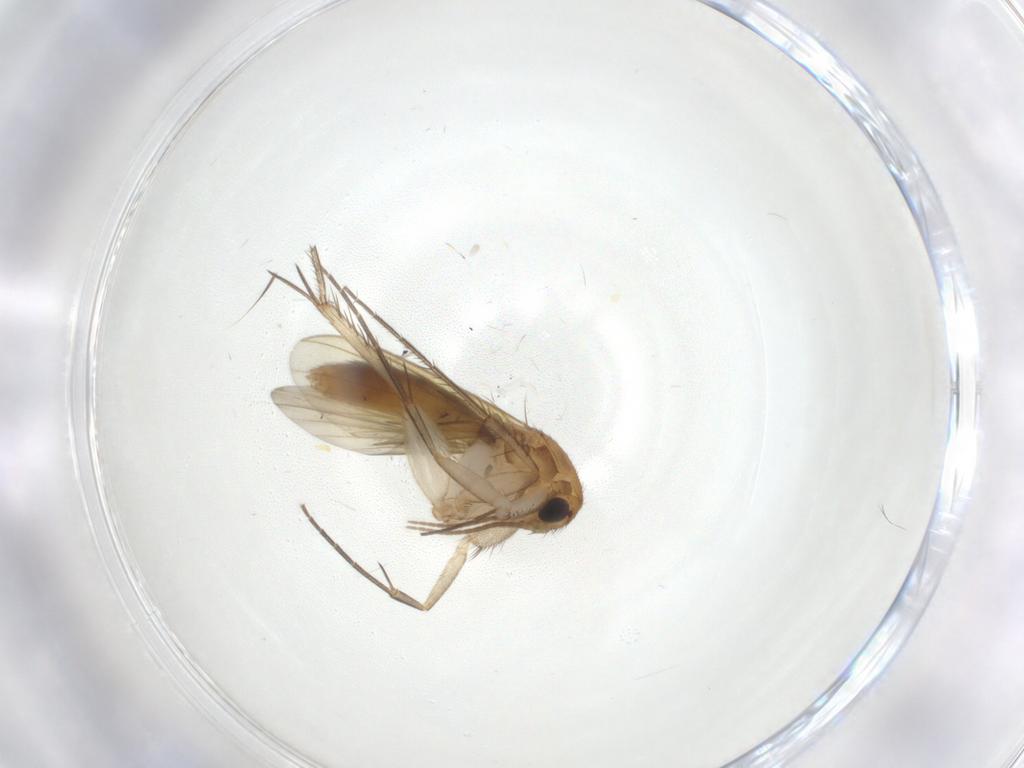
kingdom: Animalia
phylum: Arthropoda
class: Insecta
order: Diptera
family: Mycetophilidae
